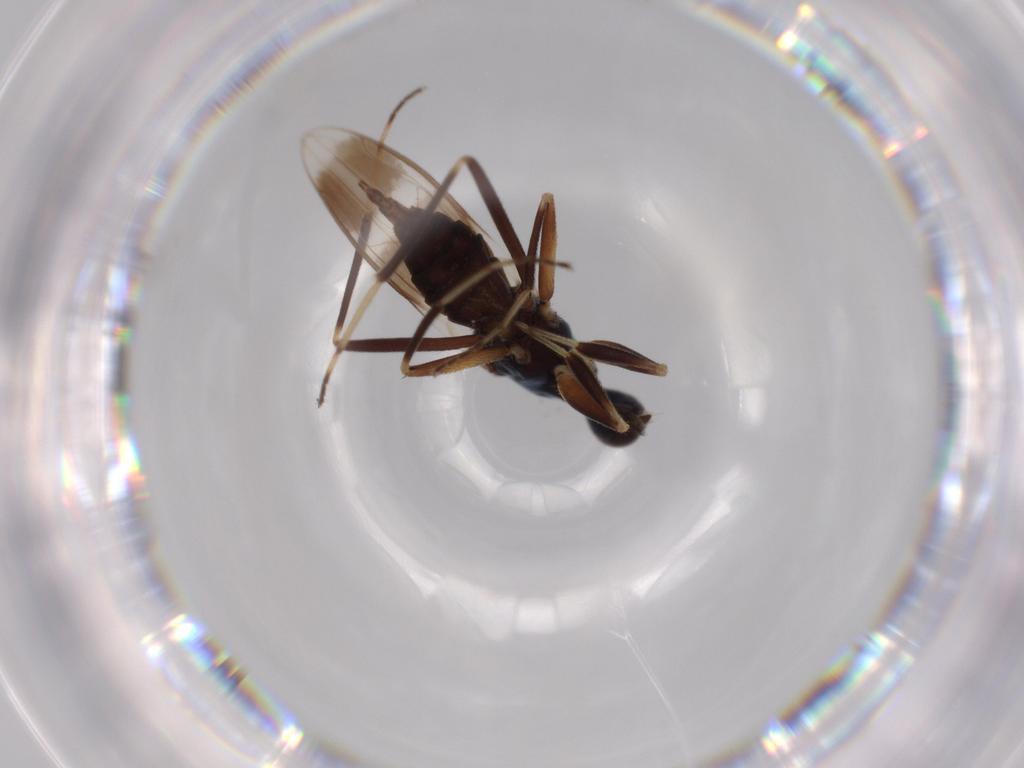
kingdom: Animalia
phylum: Arthropoda
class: Insecta
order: Diptera
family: Hybotidae
